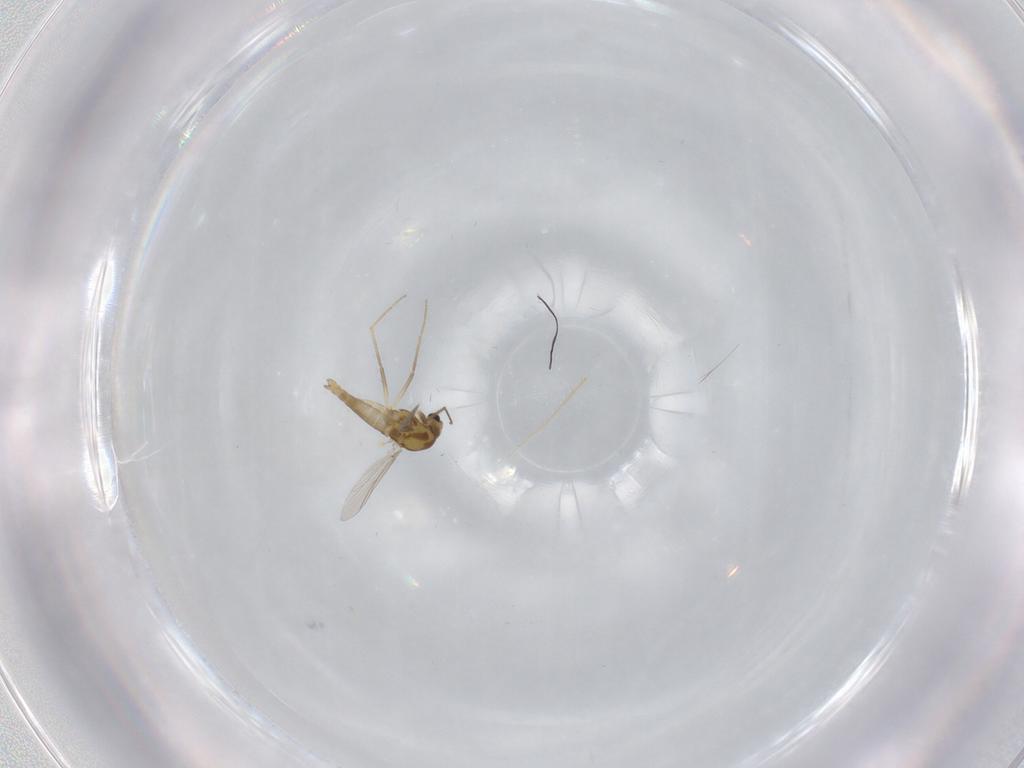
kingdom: Animalia
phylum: Arthropoda
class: Insecta
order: Diptera
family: Chironomidae
